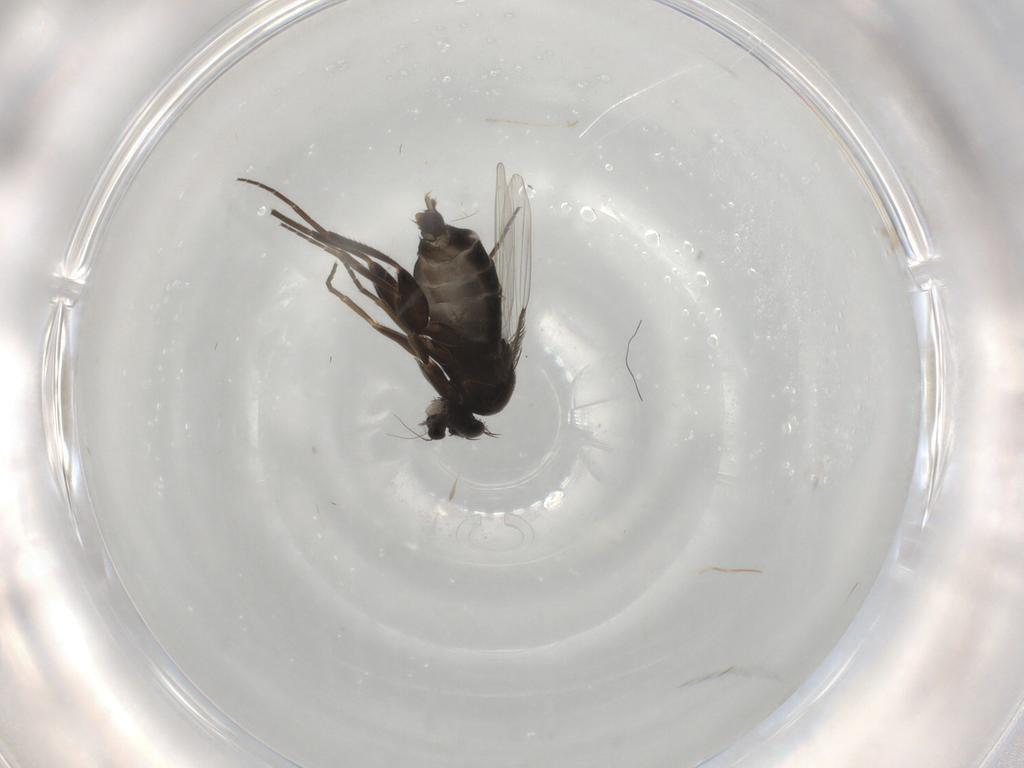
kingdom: Animalia
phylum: Arthropoda
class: Insecta
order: Diptera
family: Phoridae
